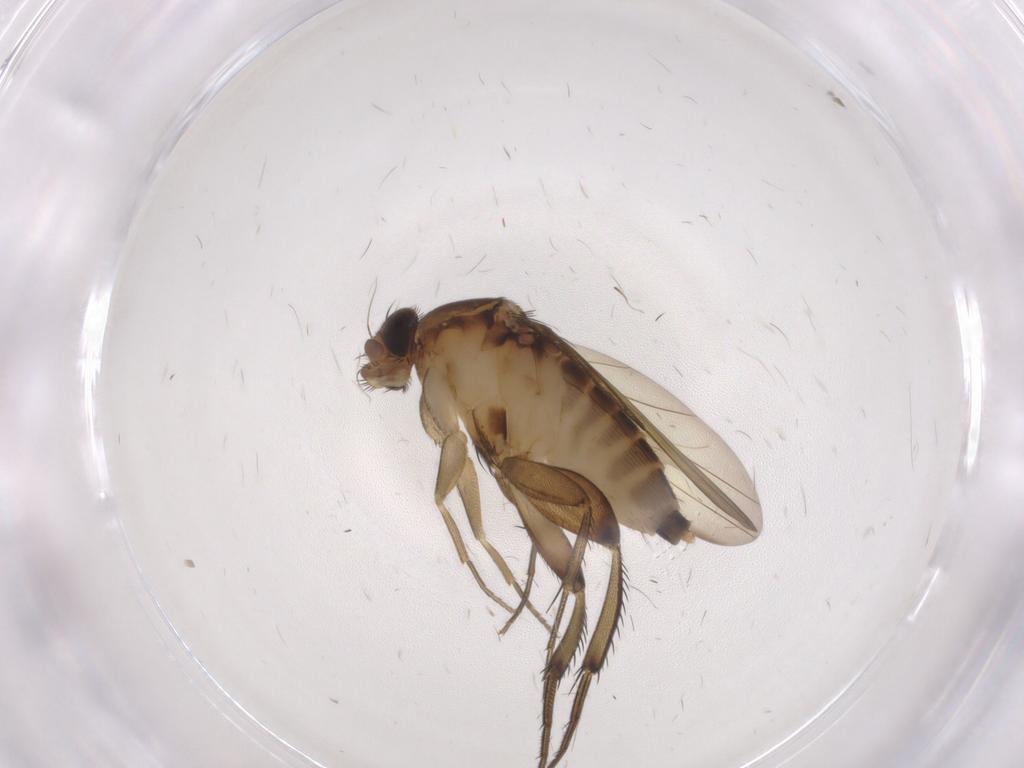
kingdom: Animalia
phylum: Arthropoda
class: Insecta
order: Diptera
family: Phoridae
